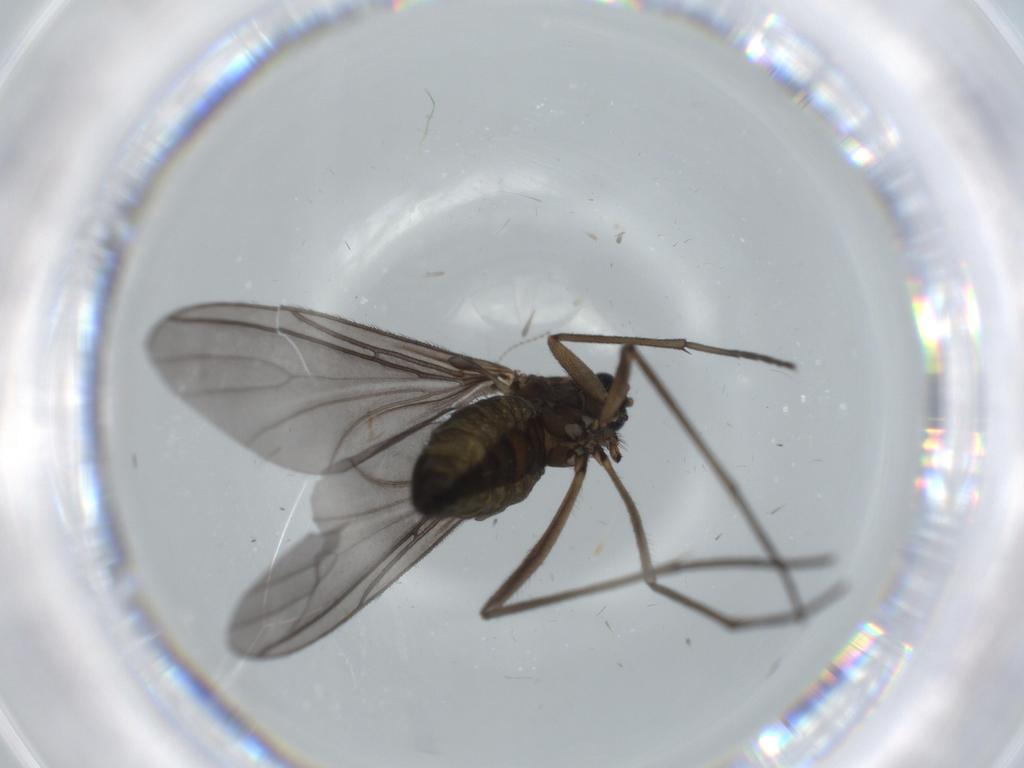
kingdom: Animalia
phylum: Arthropoda
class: Insecta
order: Diptera
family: Sciaridae
